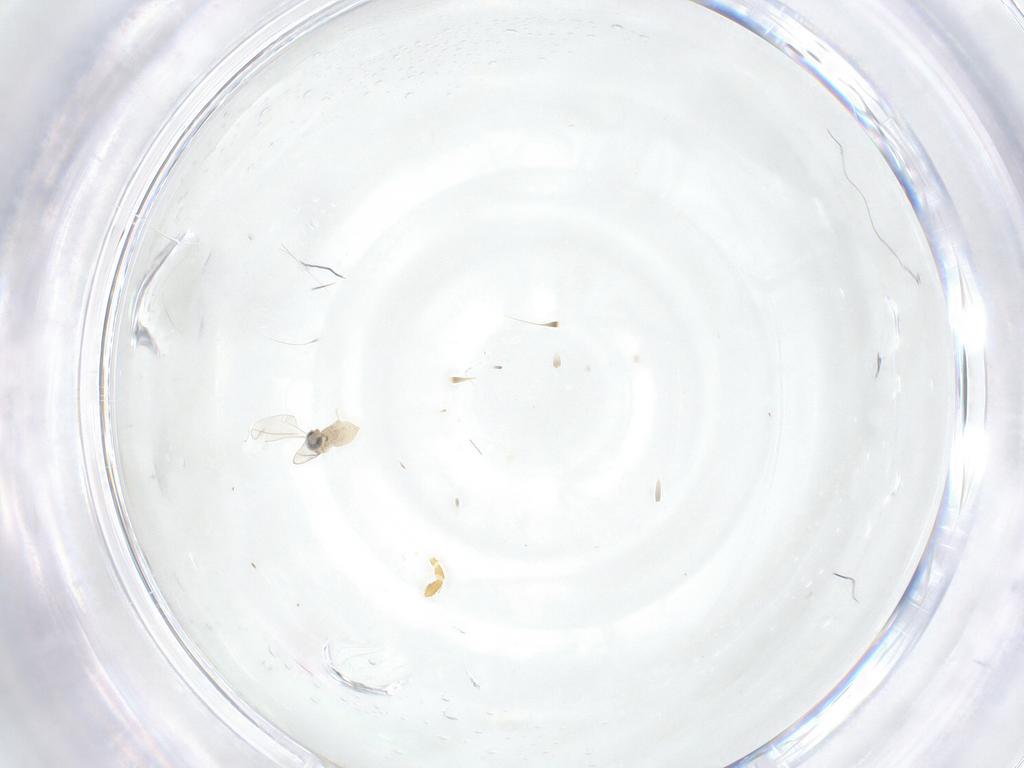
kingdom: Animalia
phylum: Arthropoda
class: Insecta
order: Diptera
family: Cecidomyiidae
